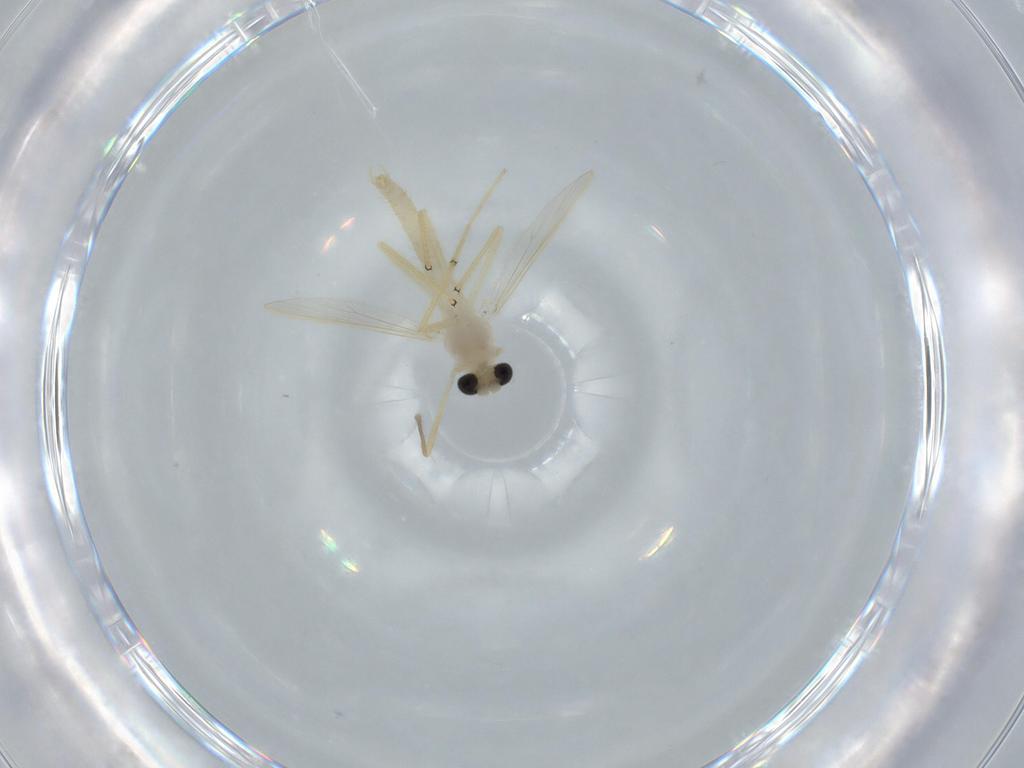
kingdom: Animalia
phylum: Arthropoda
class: Insecta
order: Diptera
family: Chironomidae
